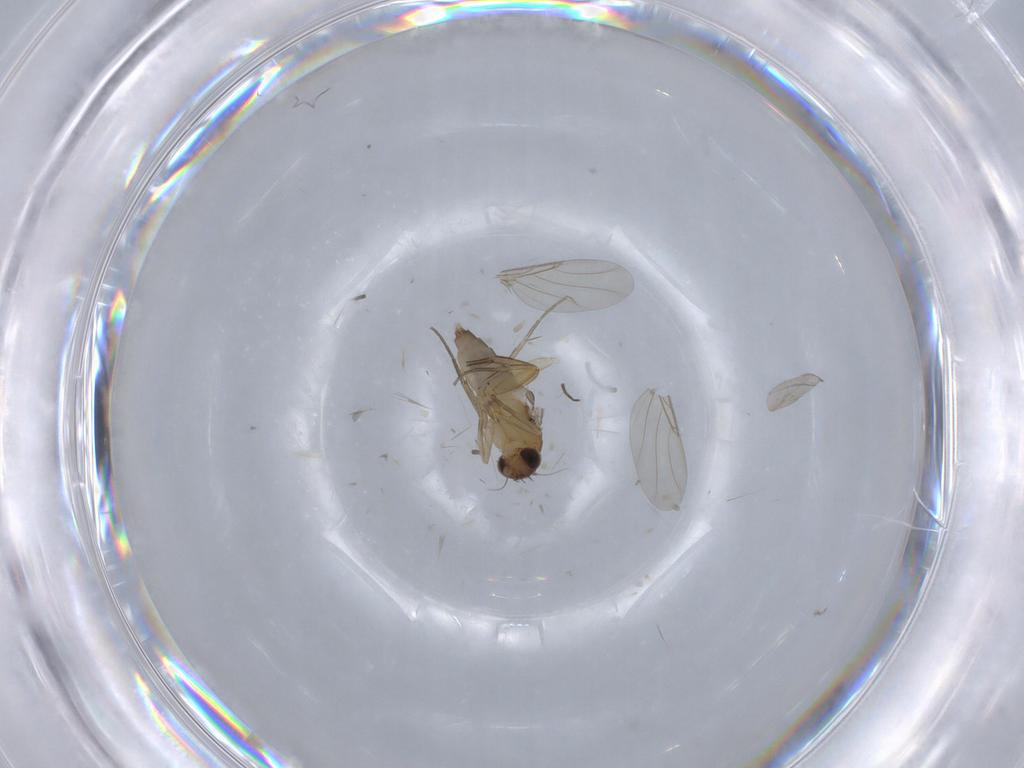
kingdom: Animalia
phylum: Arthropoda
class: Insecta
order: Diptera
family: Phoridae
